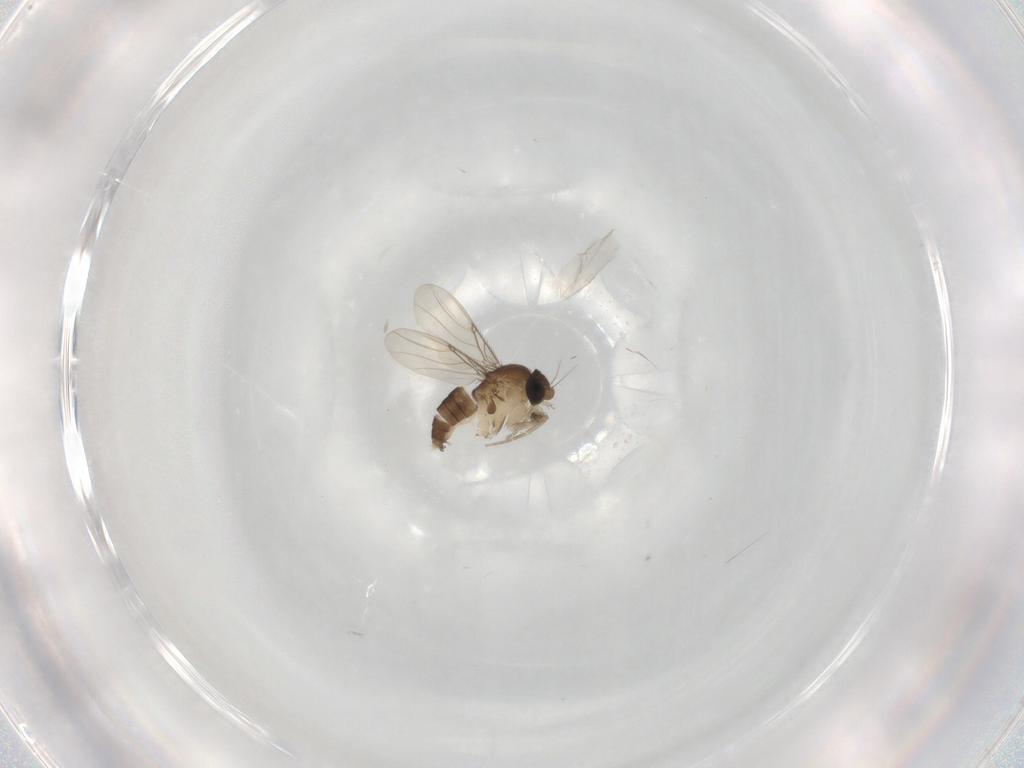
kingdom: Animalia
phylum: Arthropoda
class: Insecta
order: Diptera
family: Phoridae
